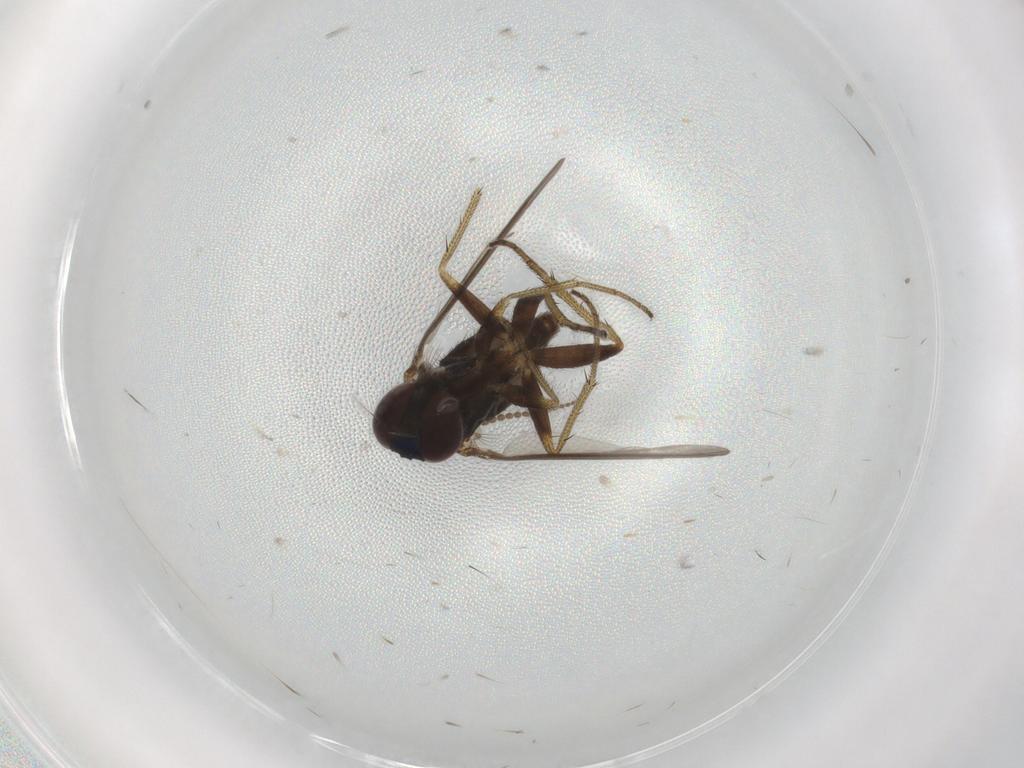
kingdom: Animalia
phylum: Arthropoda
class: Insecta
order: Diptera
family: Limoniidae
